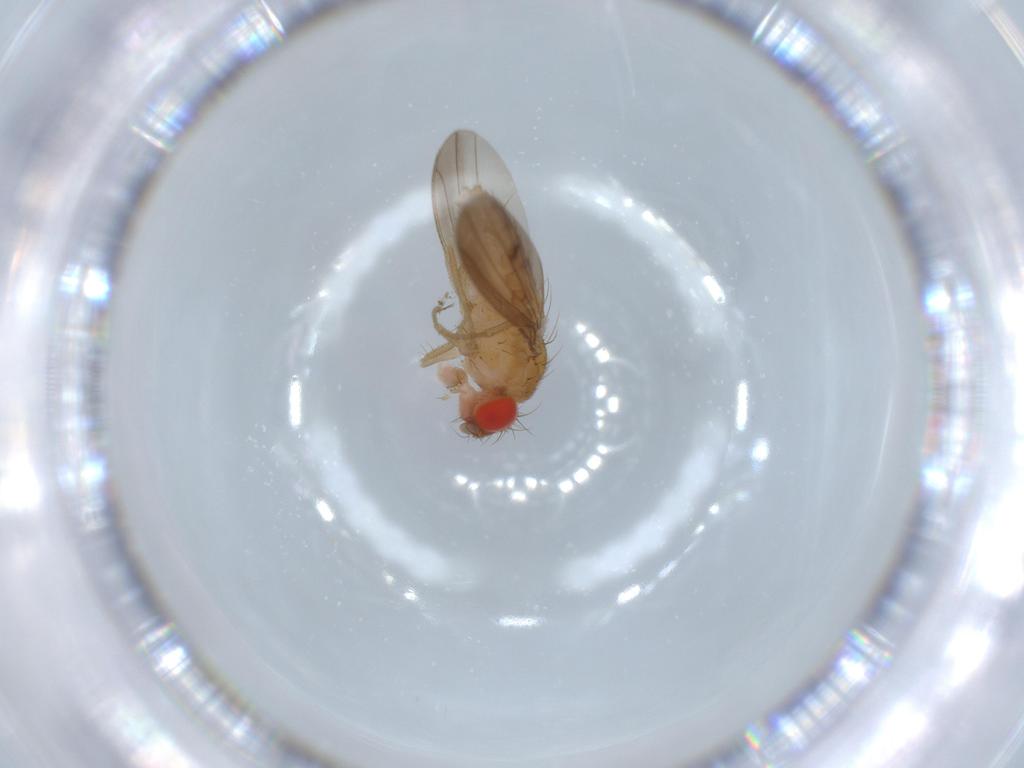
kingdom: Animalia
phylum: Arthropoda
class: Insecta
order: Diptera
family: Drosophilidae
